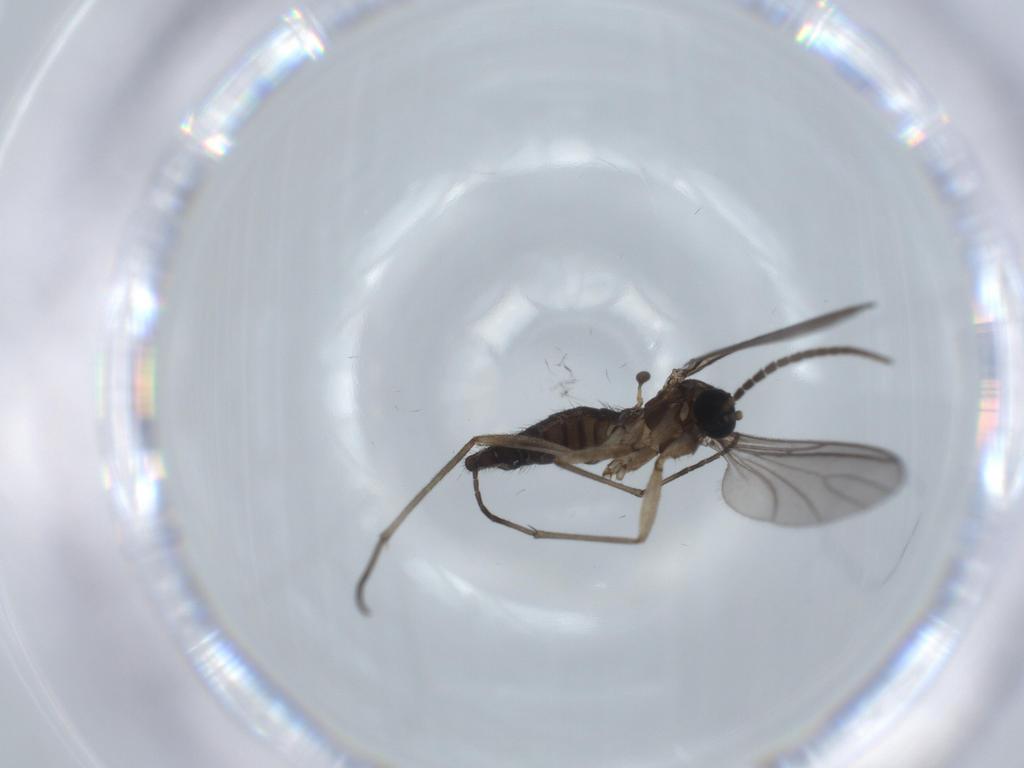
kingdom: Animalia
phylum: Arthropoda
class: Insecta
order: Diptera
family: Sciaridae
